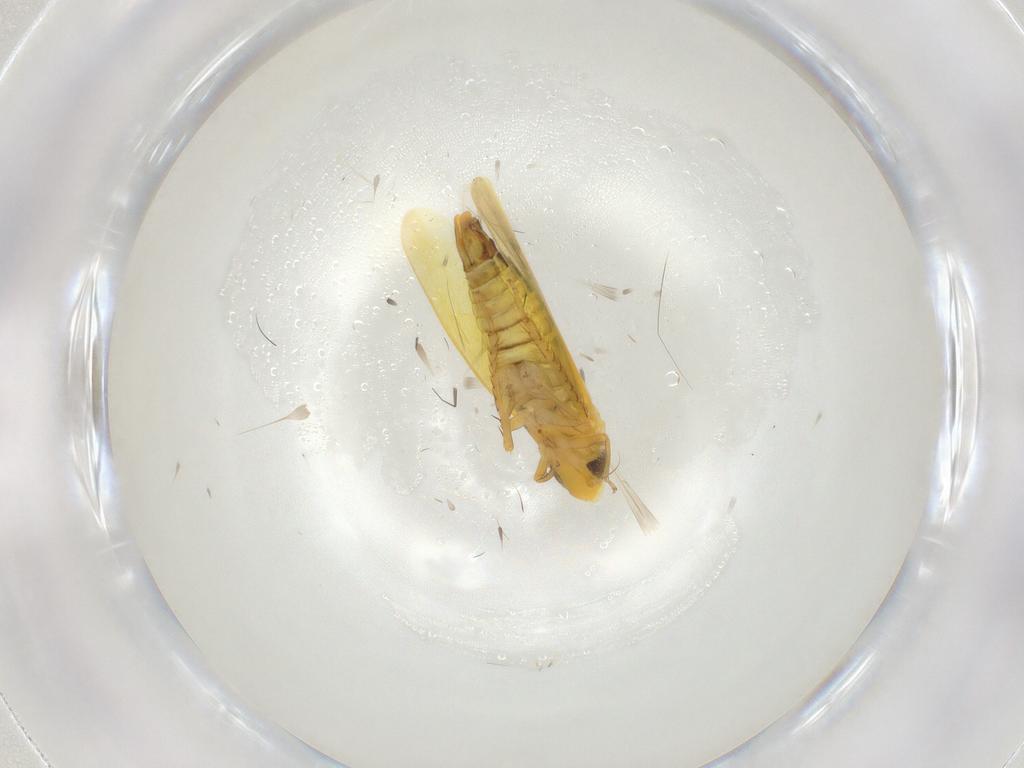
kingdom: Animalia
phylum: Arthropoda
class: Insecta
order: Hemiptera
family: Cicadellidae
